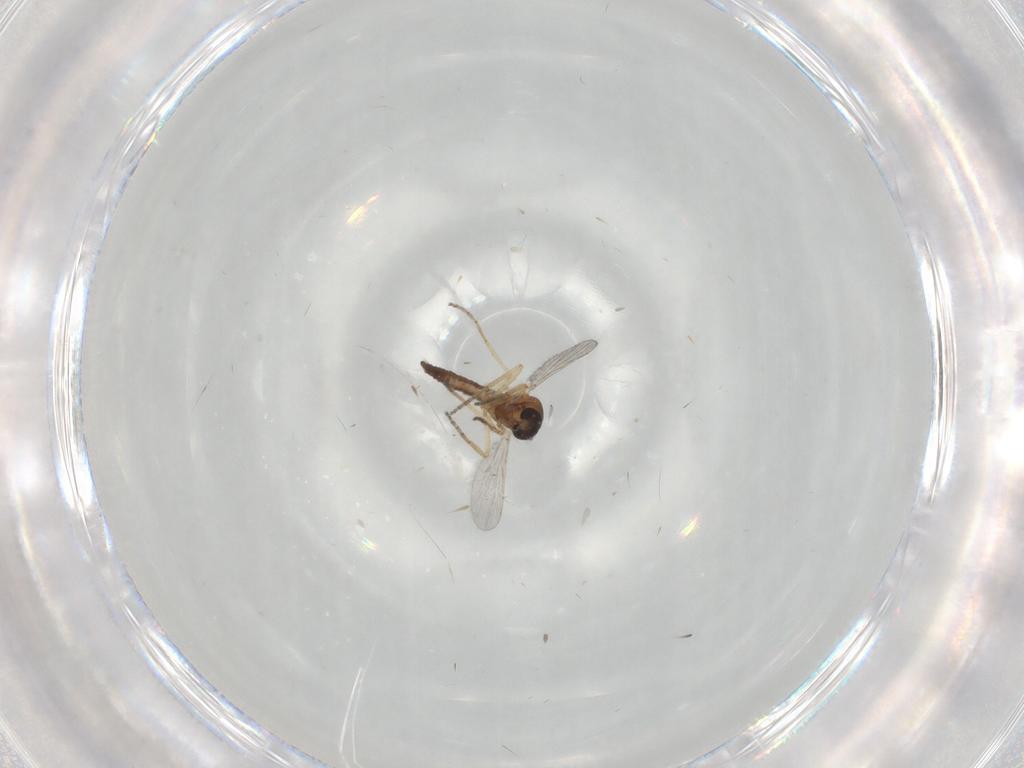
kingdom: Animalia
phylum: Arthropoda
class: Insecta
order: Diptera
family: Ceratopogonidae
